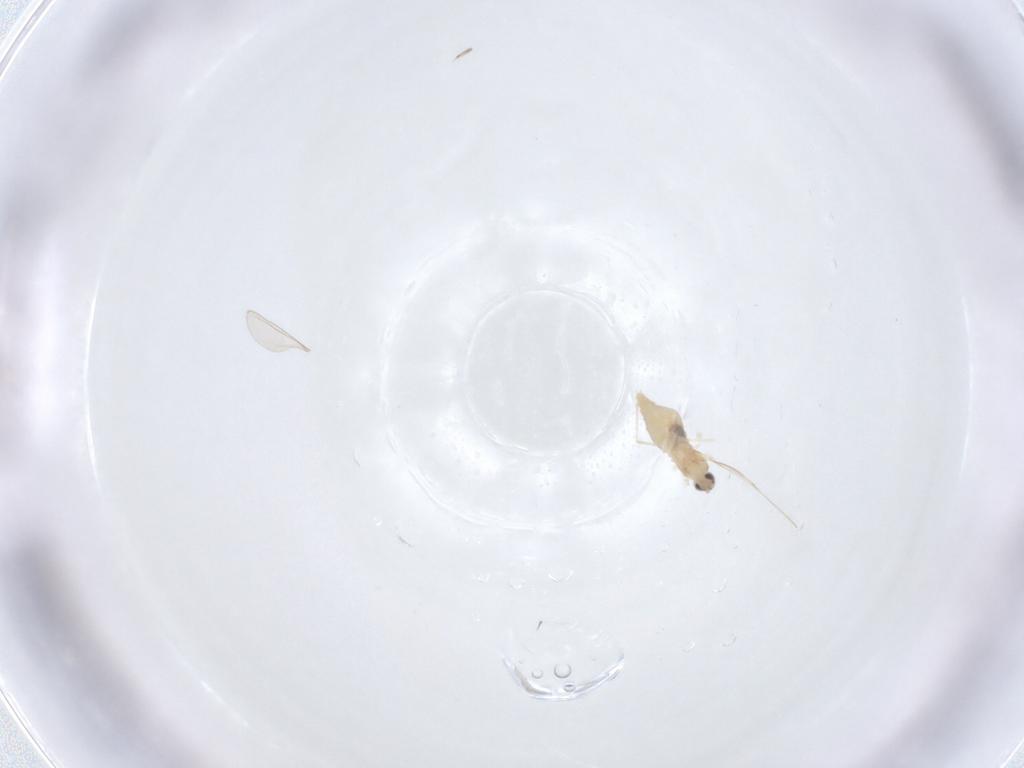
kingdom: Animalia
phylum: Arthropoda
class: Insecta
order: Diptera
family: Cecidomyiidae
